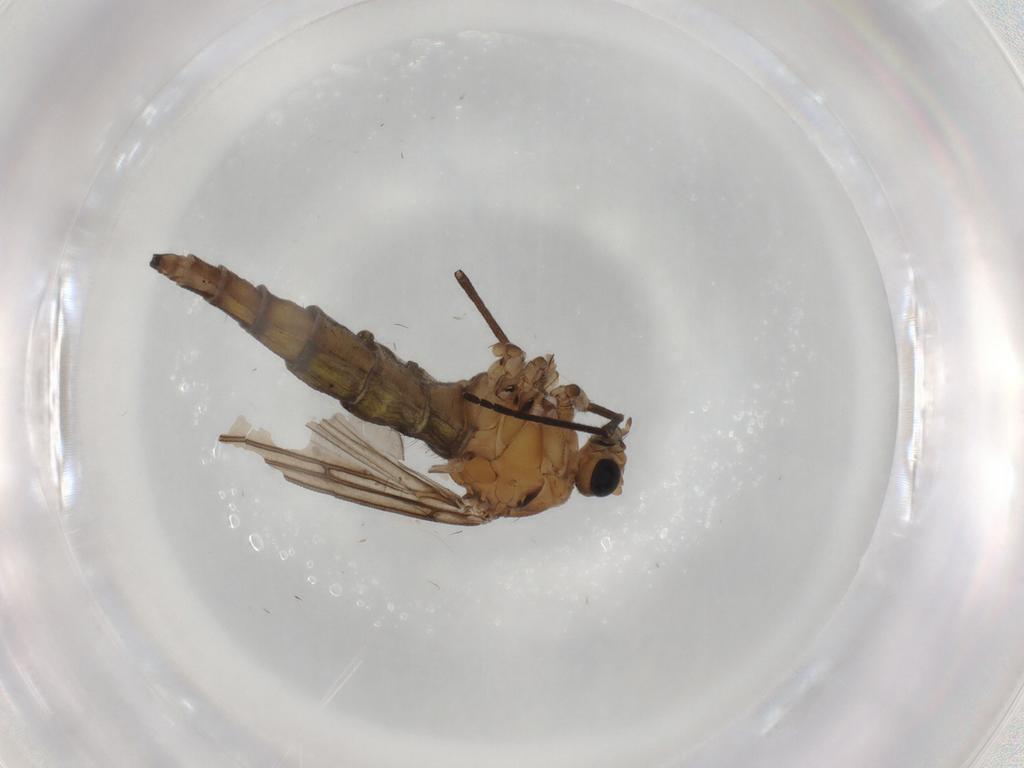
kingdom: Animalia
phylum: Arthropoda
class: Insecta
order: Diptera
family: Sciaridae
